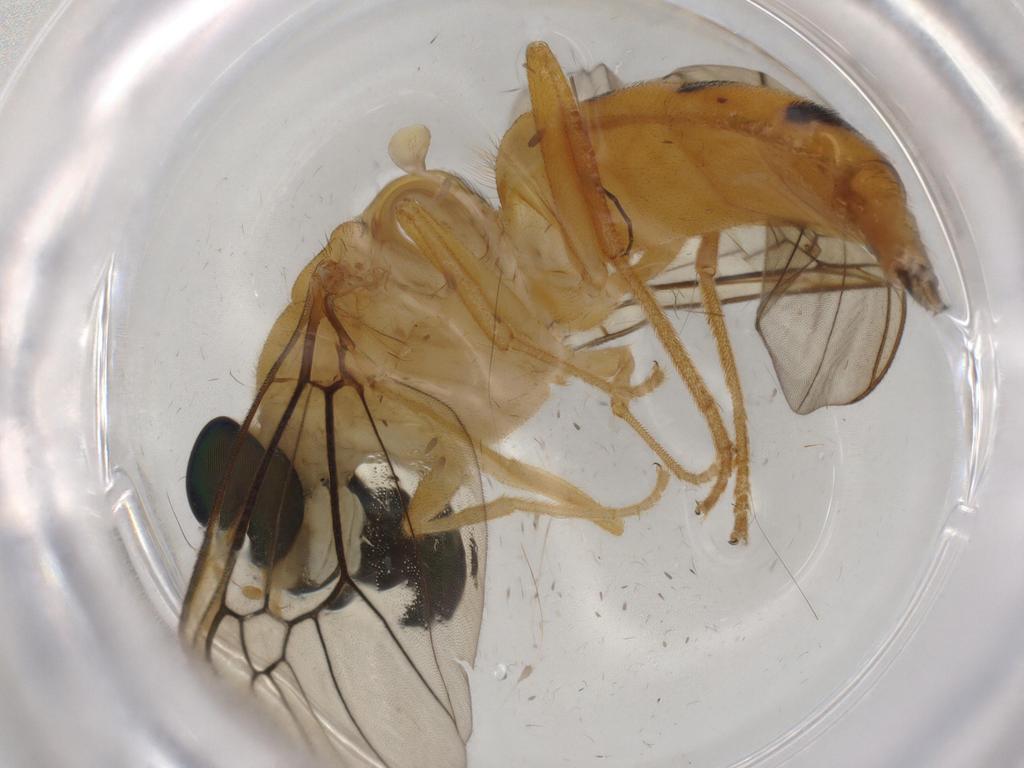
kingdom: Animalia
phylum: Arthropoda
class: Insecta
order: Diptera
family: Phoridae
